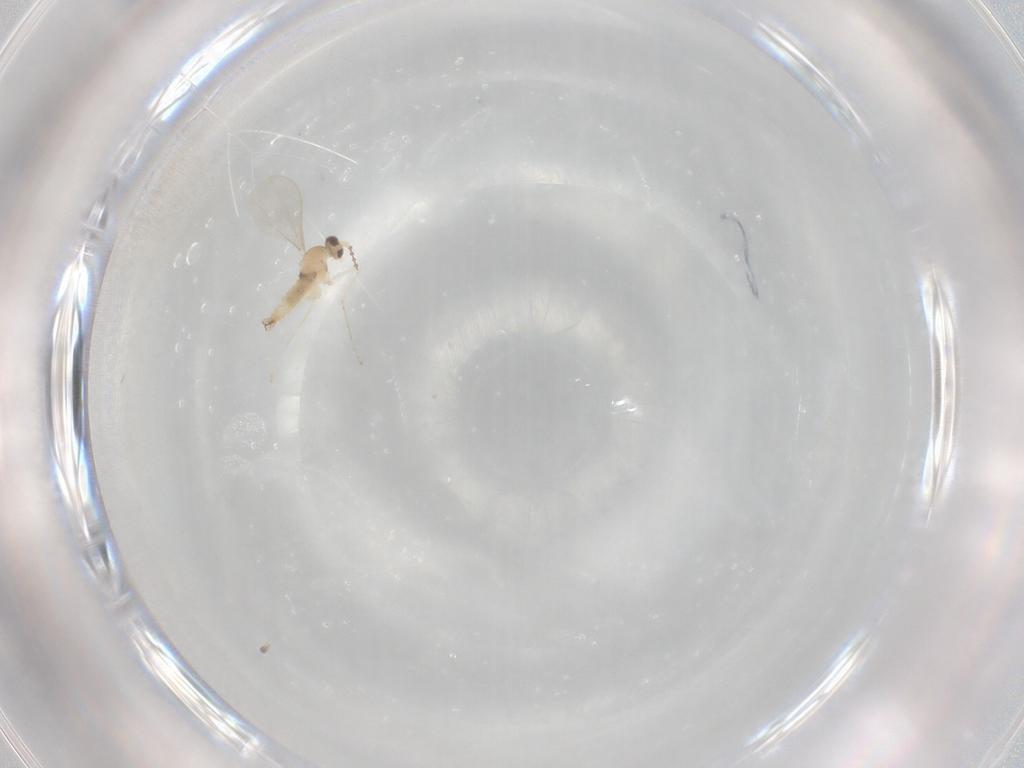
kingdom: Animalia
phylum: Arthropoda
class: Insecta
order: Diptera
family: Cecidomyiidae
